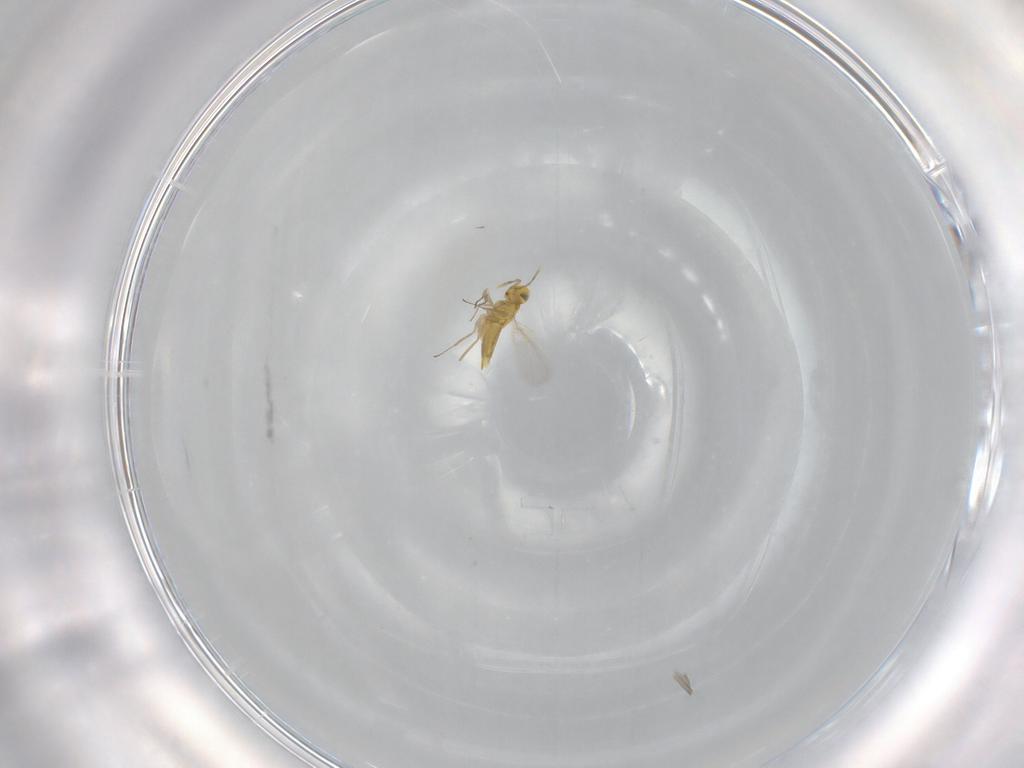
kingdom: Animalia
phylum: Arthropoda
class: Insecta
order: Hymenoptera
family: Aphelinidae
